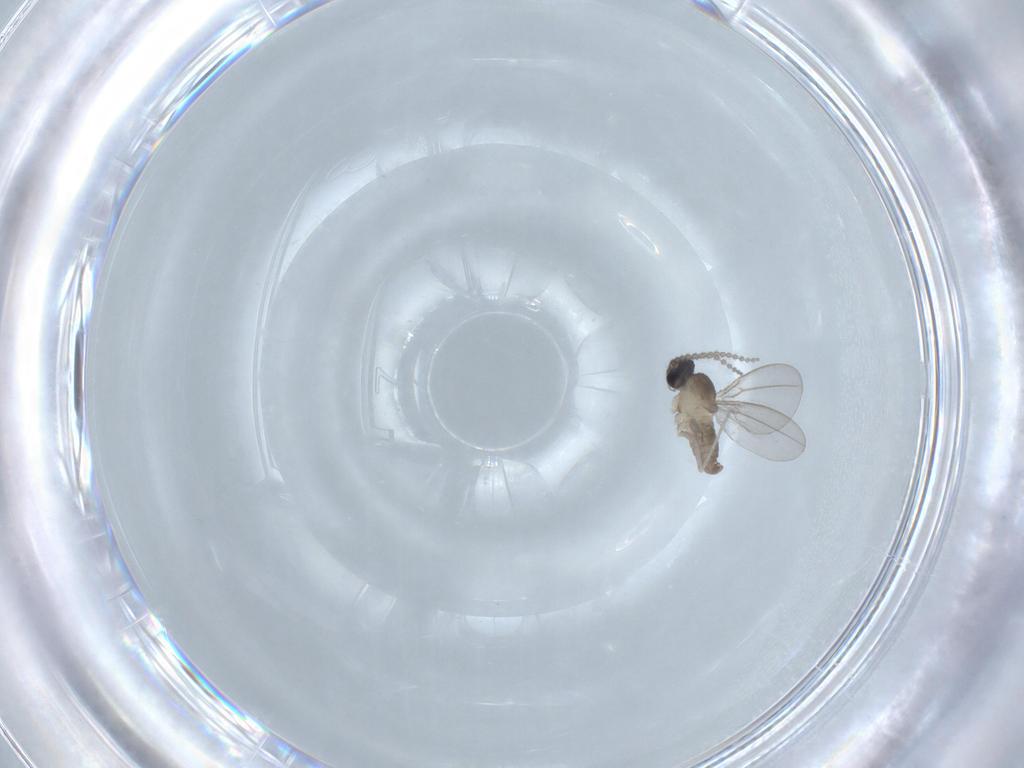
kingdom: Animalia
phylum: Arthropoda
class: Insecta
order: Diptera
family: Cecidomyiidae
